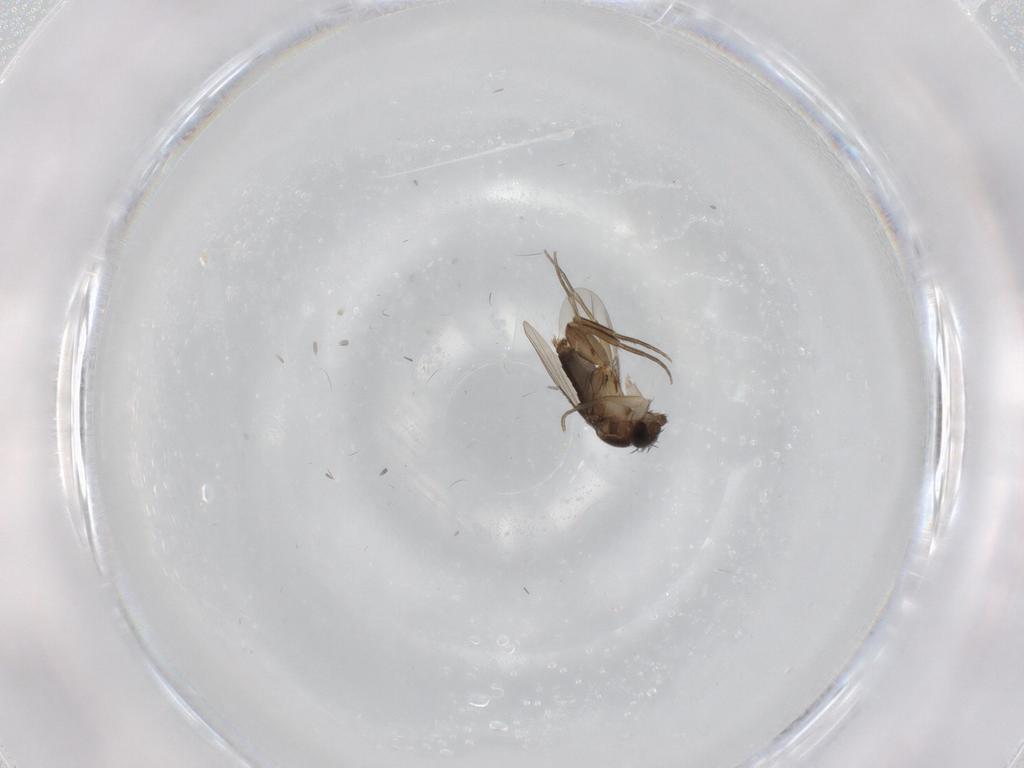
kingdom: Animalia
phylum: Arthropoda
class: Insecta
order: Diptera
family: Phoridae
